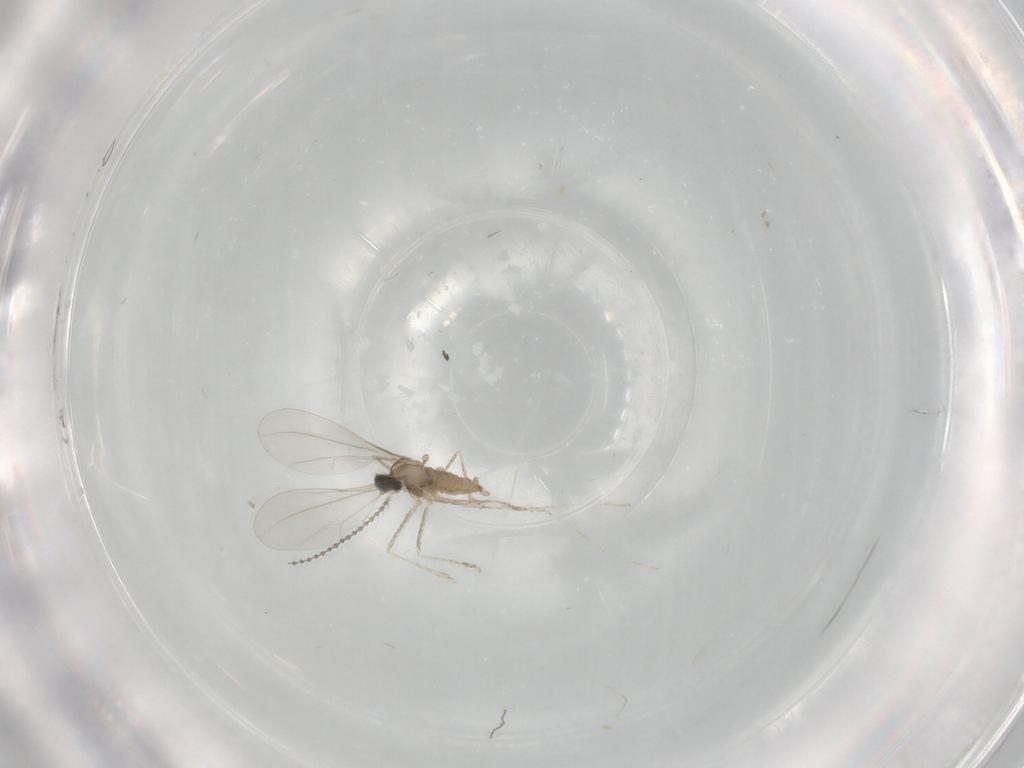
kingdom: Animalia
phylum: Arthropoda
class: Insecta
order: Diptera
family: Cecidomyiidae
